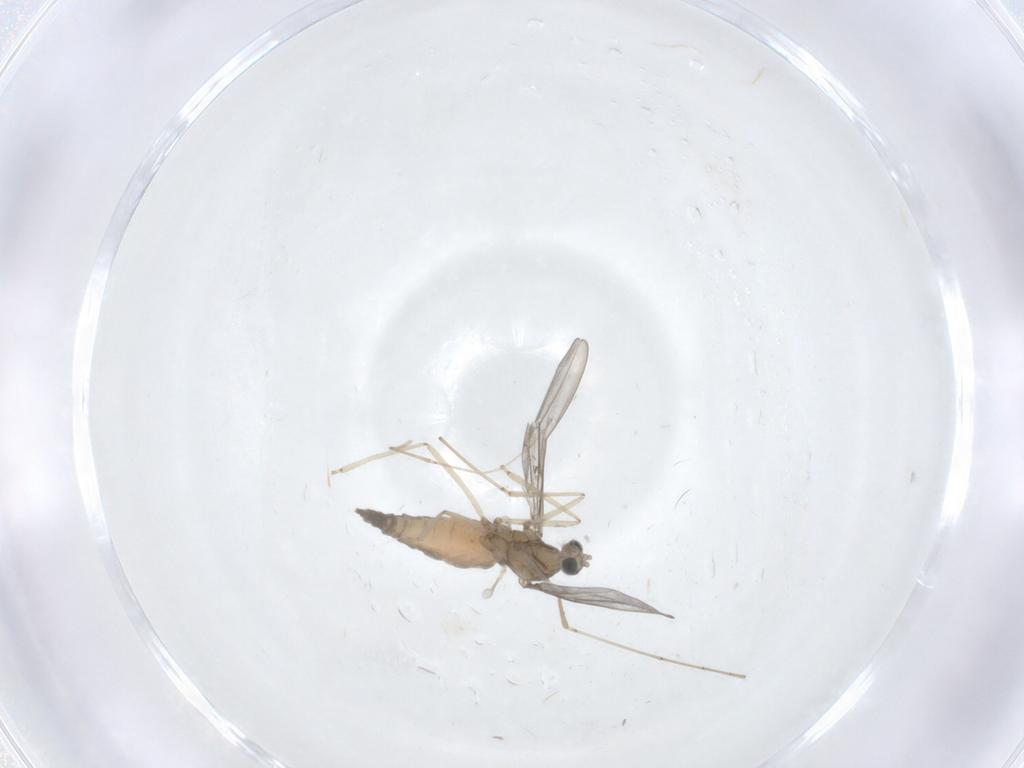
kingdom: Animalia
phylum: Arthropoda
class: Insecta
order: Diptera
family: Cecidomyiidae
